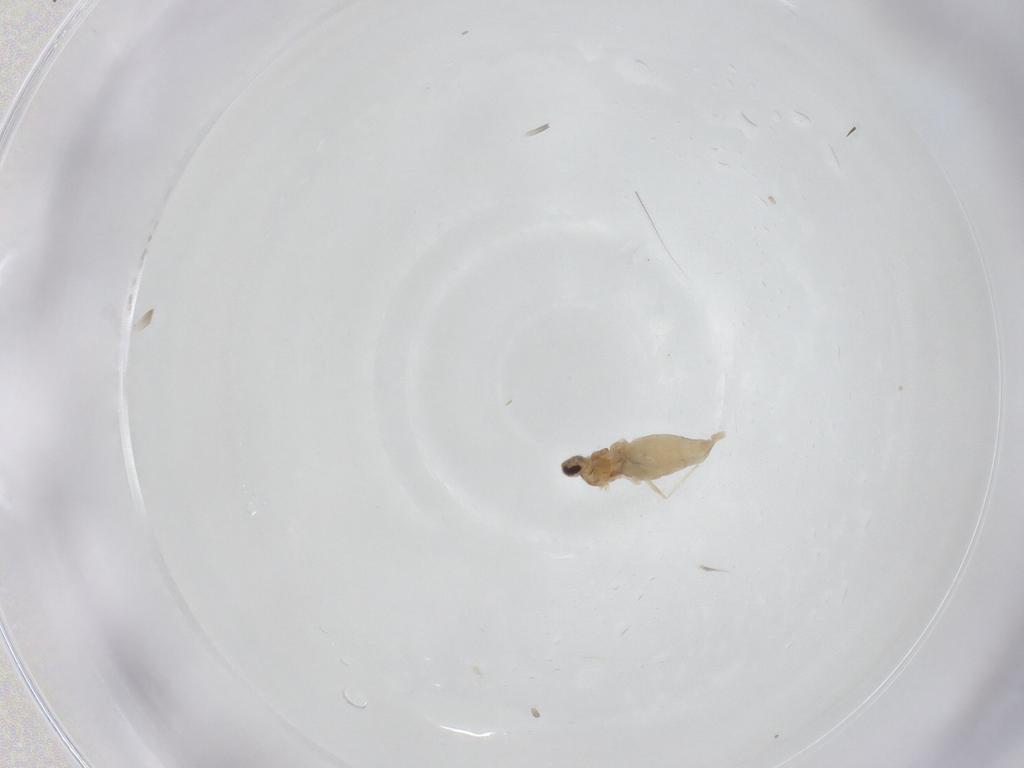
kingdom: Animalia
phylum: Arthropoda
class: Insecta
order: Diptera
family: Cecidomyiidae
